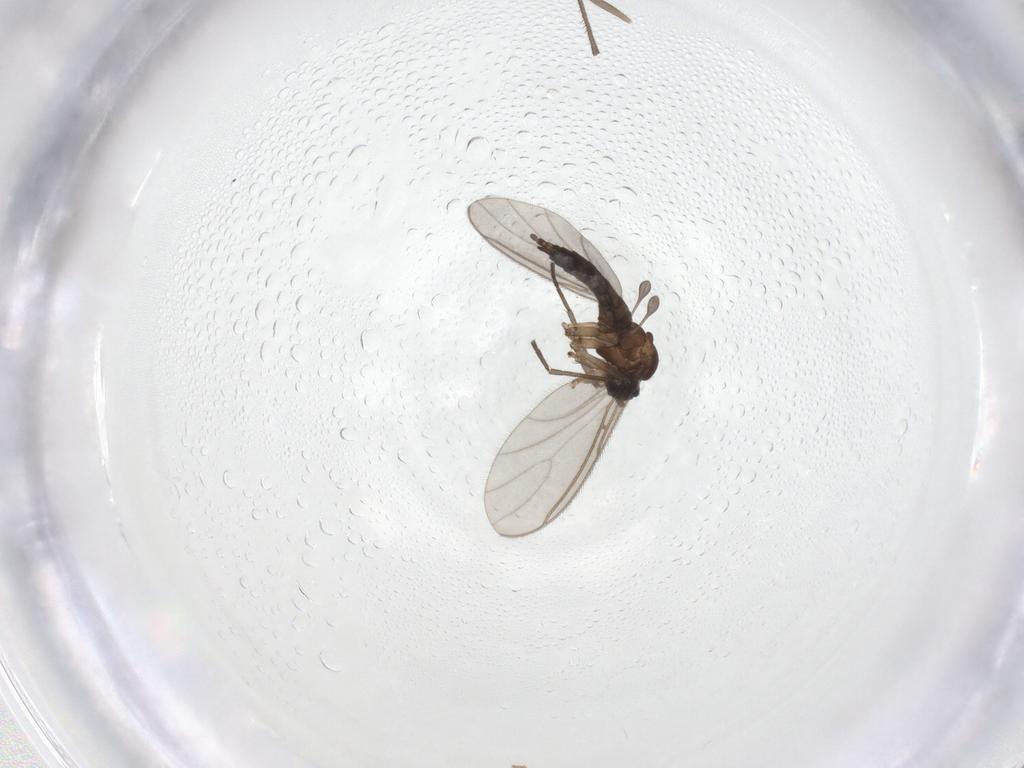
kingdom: Animalia
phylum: Arthropoda
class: Insecta
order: Diptera
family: Sciaridae
